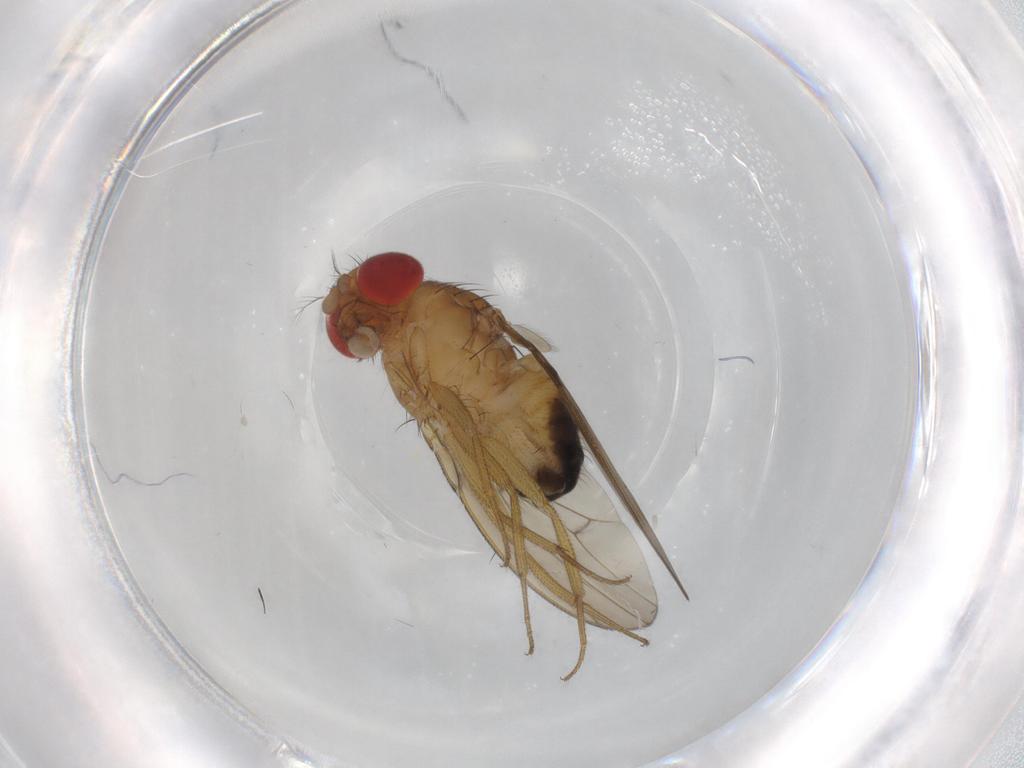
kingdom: Animalia
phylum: Arthropoda
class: Insecta
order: Diptera
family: Drosophilidae
